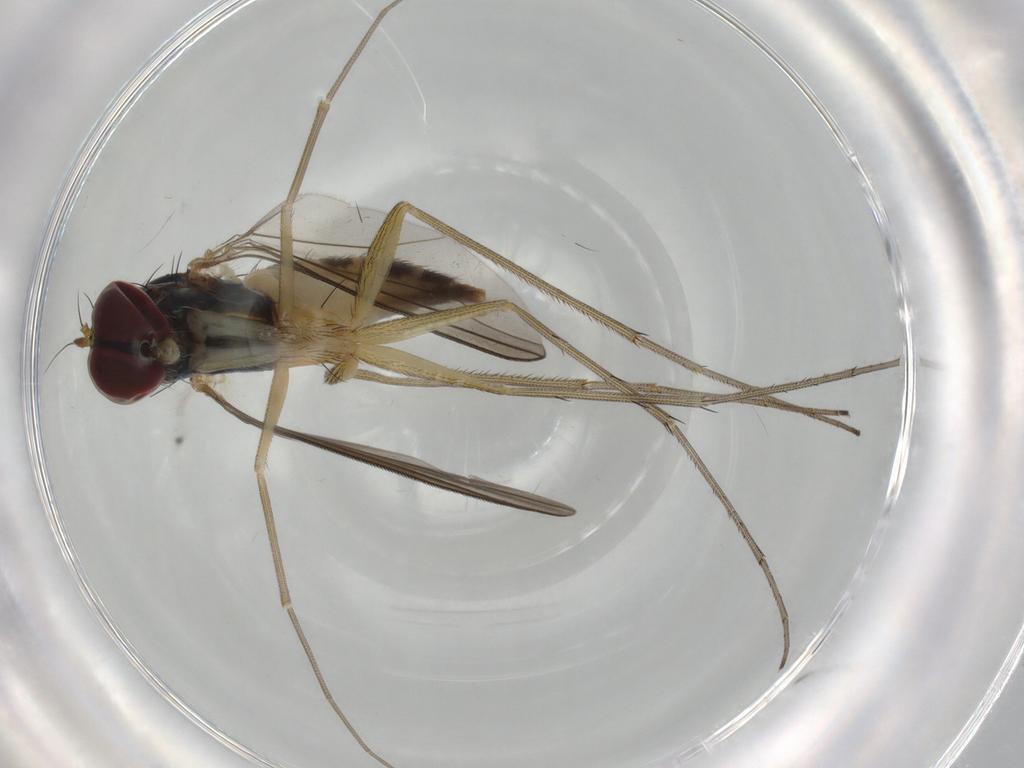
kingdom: Animalia
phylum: Arthropoda
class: Insecta
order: Diptera
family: Dolichopodidae
